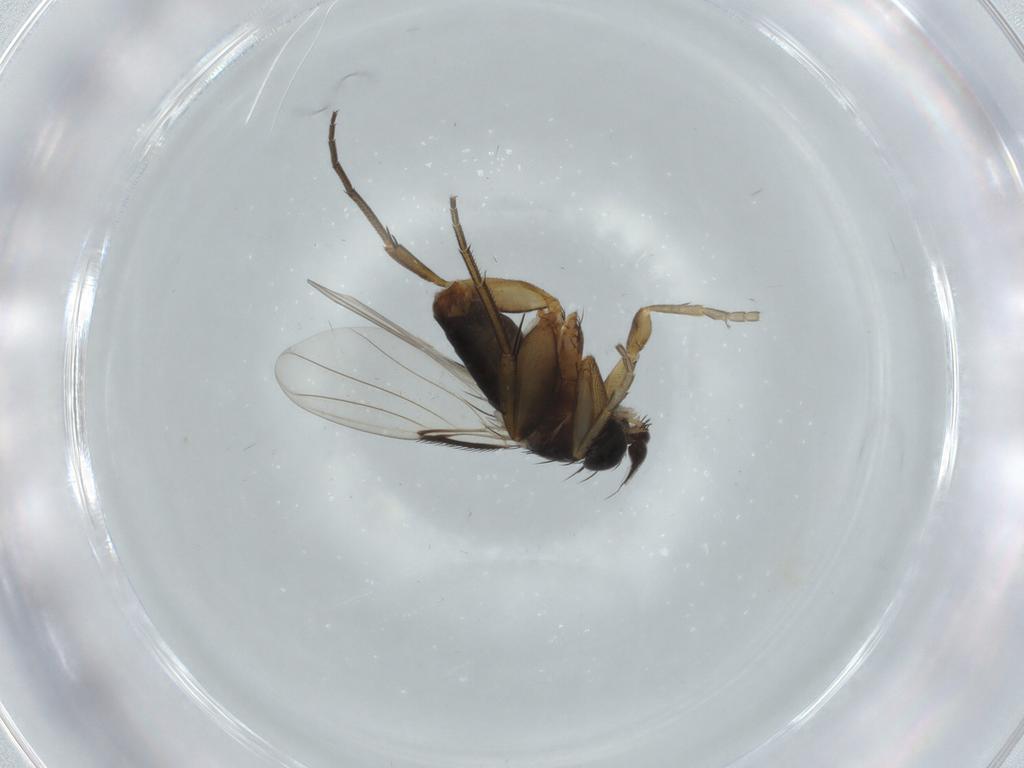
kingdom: Animalia
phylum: Arthropoda
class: Insecta
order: Diptera
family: Phoridae
